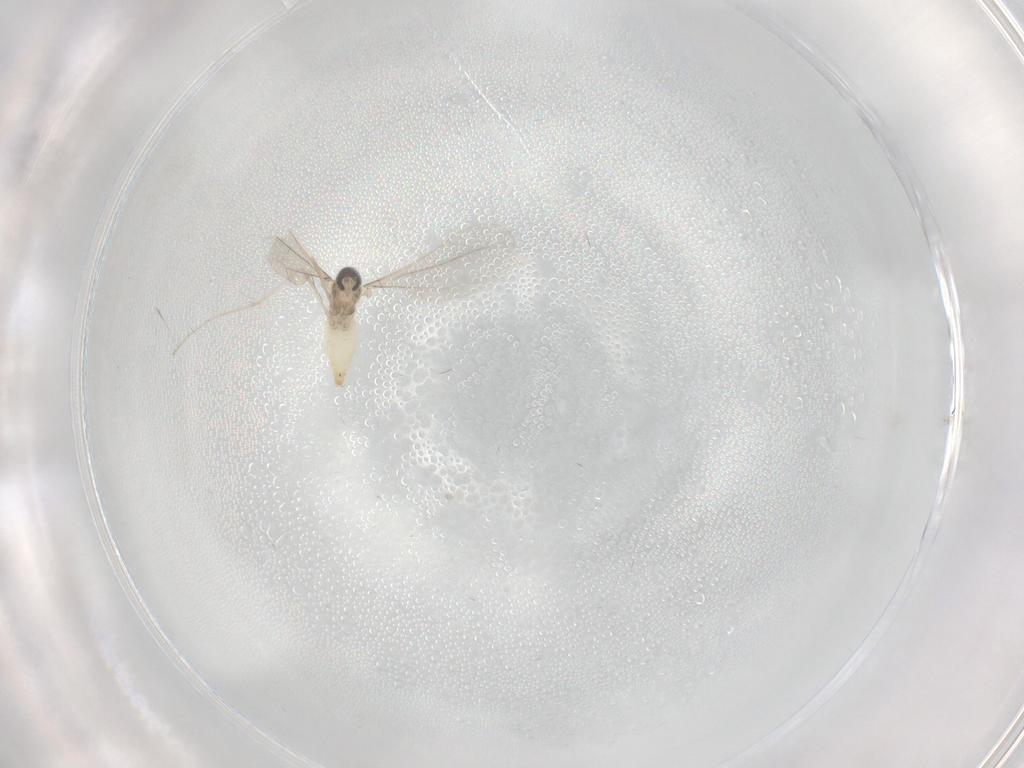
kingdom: Animalia
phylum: Arthropoda
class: Insecta
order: Diptera
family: Cecidomyiidae
